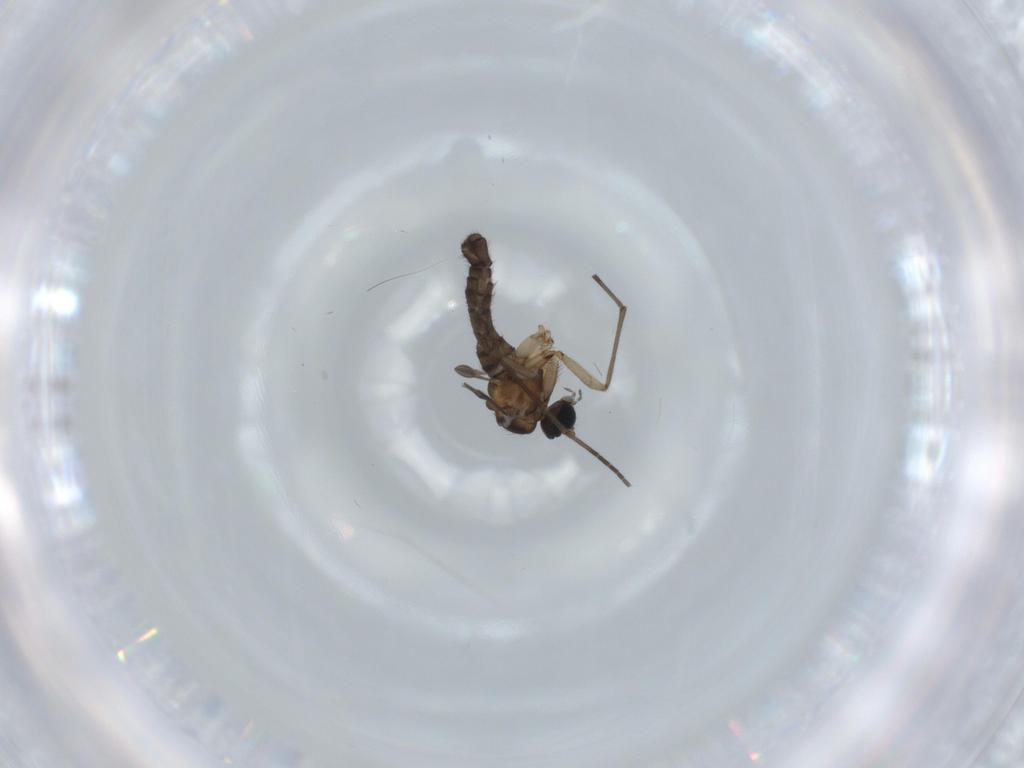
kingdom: Animalia
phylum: Arthropoda
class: Insecta
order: Diptera
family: Sciaridae
